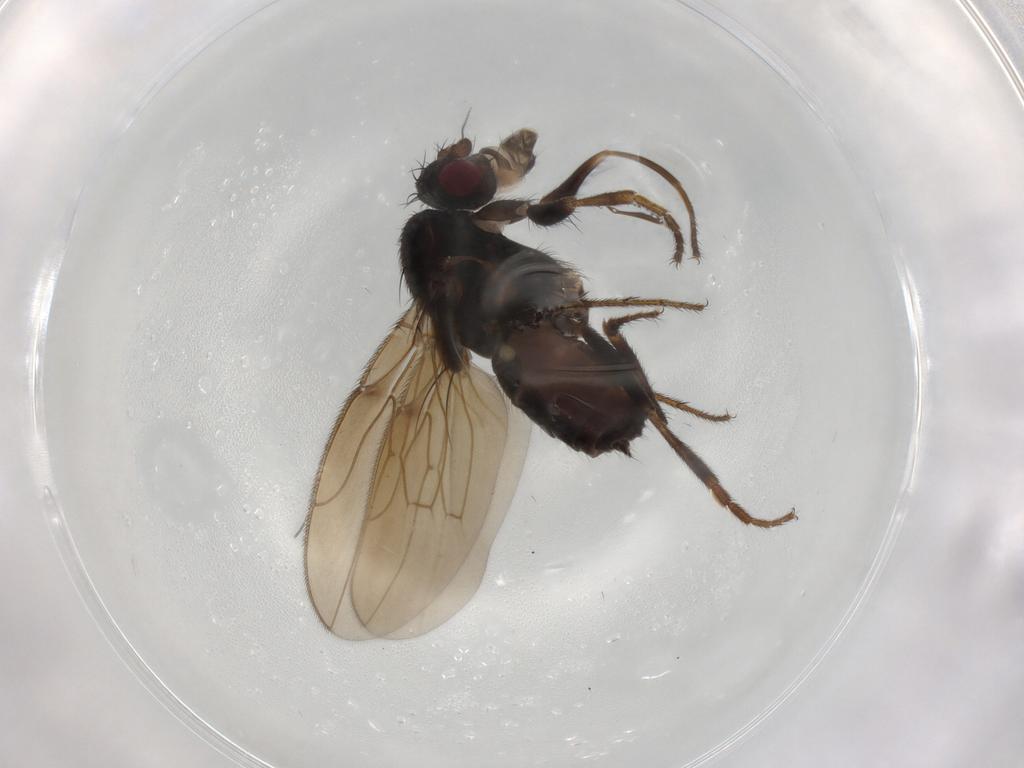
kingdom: Animalia
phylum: Arthropoda
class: Insecta
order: Diptera
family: Sphaeroceridae
